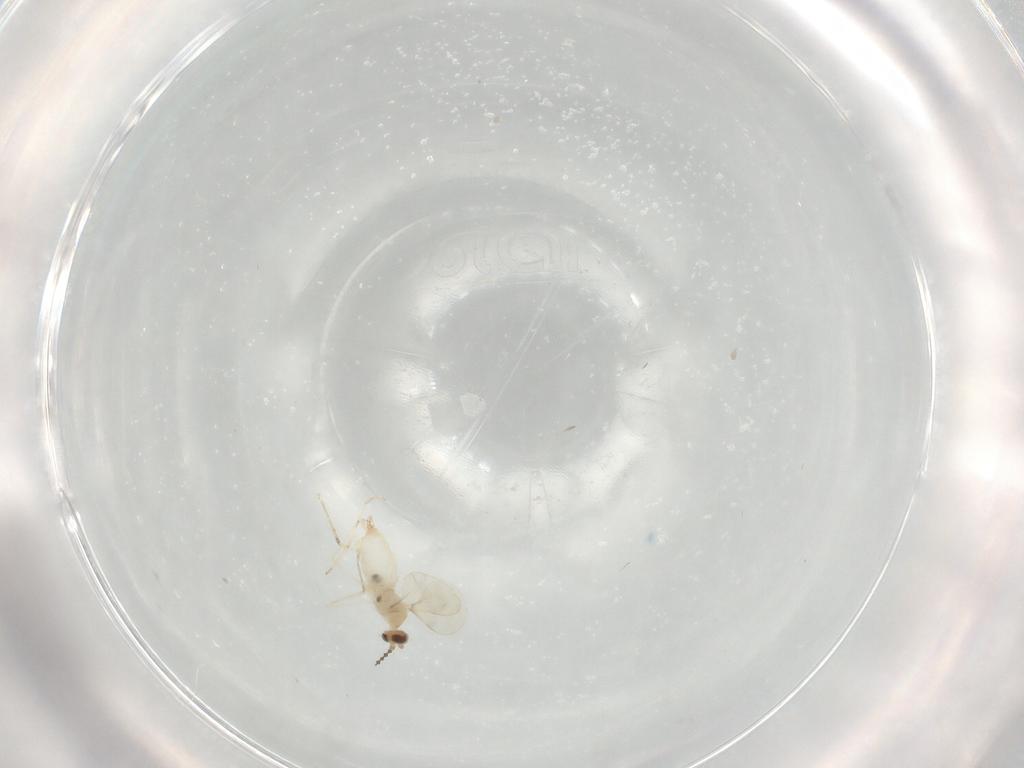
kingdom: Animalia
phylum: Arthropoda
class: Insecta
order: Diptera
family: Phoridae
